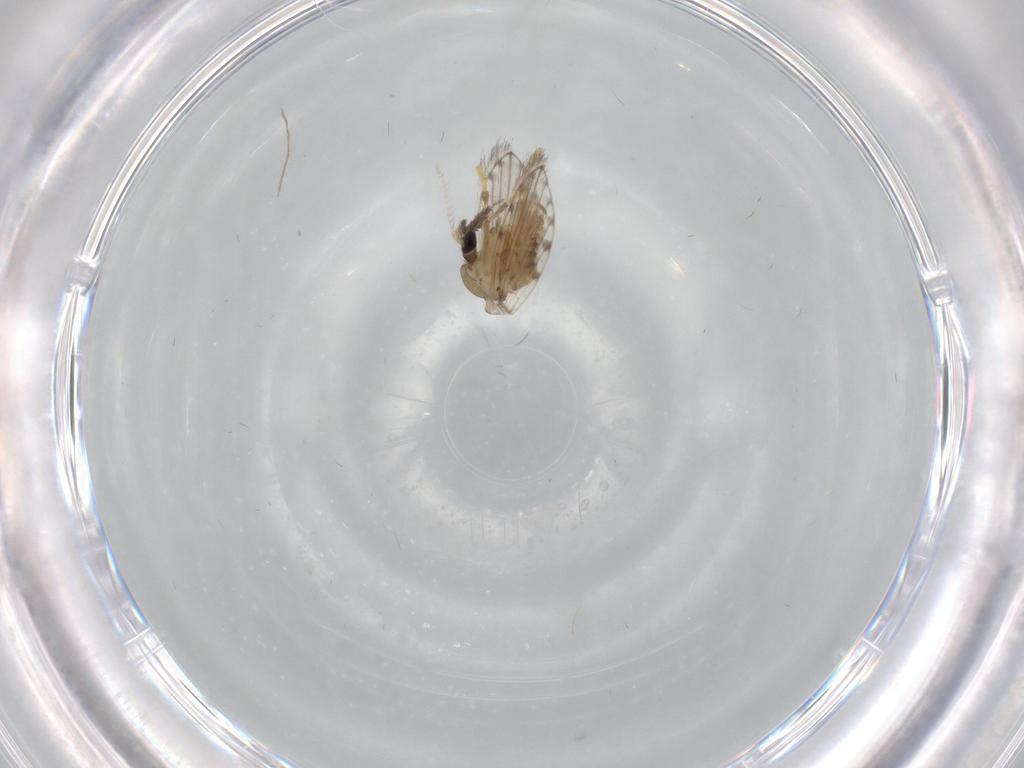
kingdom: Animalia
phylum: Arthropoda
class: Insecta
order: Diptera
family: Psychodidae
